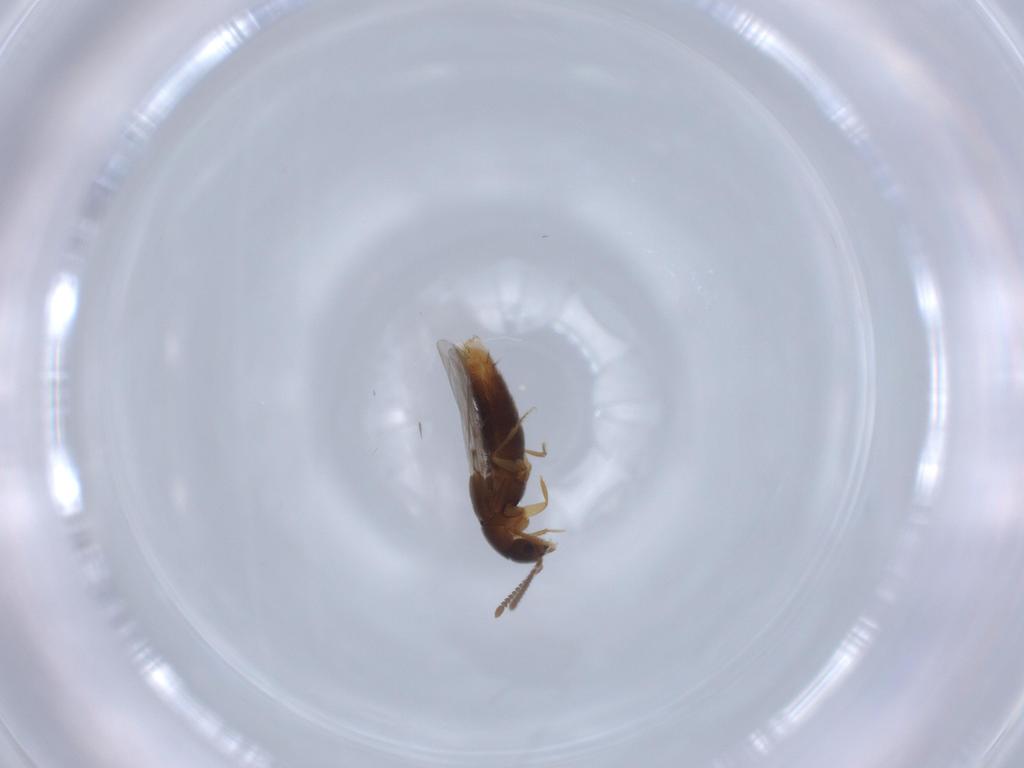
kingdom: Animalia
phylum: Arthropoda
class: Insecta
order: Coleoptera
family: Staphylinidae
